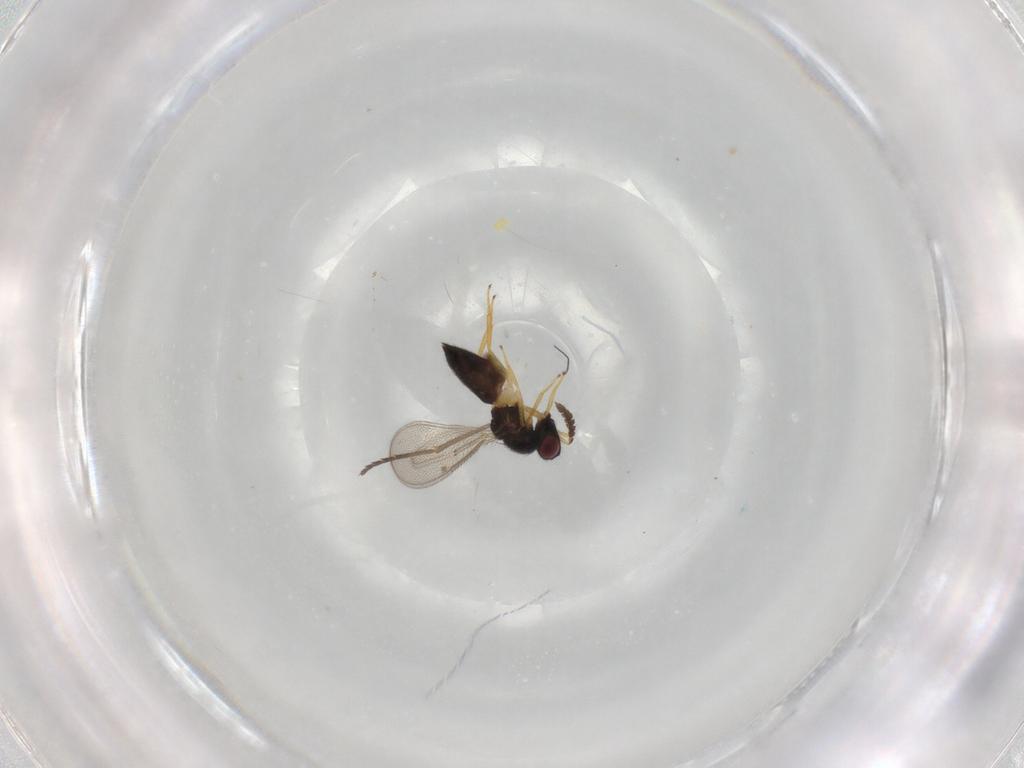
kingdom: Animalia
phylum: Arthropoda
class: Insecta
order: Hymenoptera
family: Eulophidae
